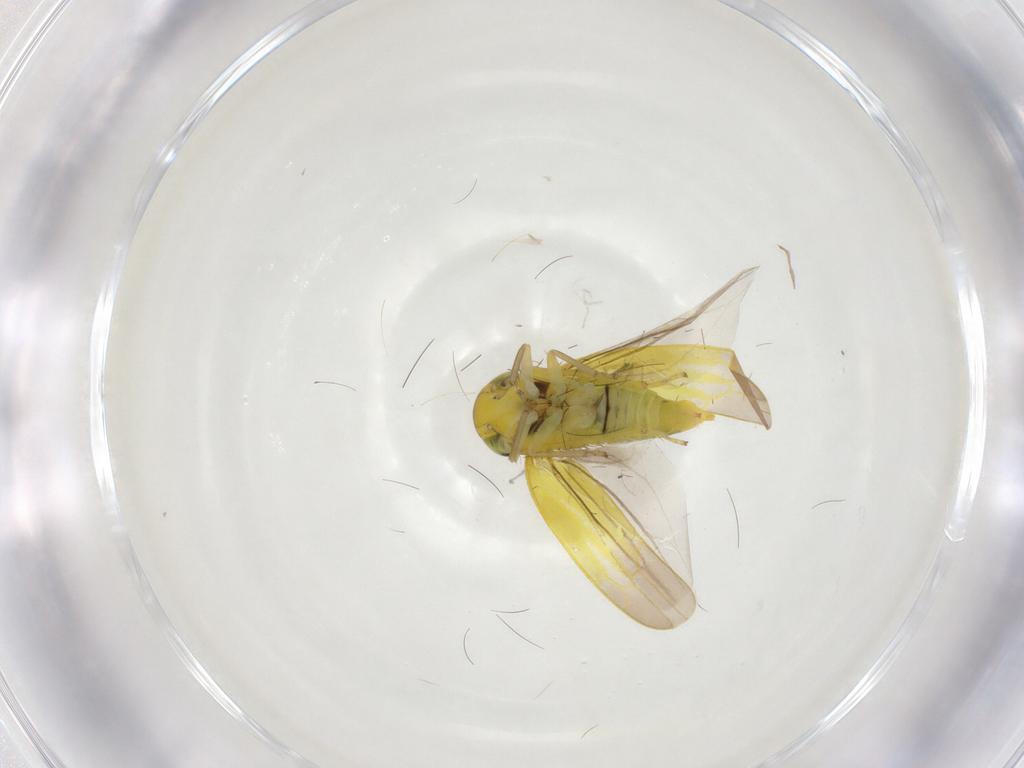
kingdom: Animalia
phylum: Arthropoda
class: Insecta
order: Hemiptera
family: Cicadellidae
